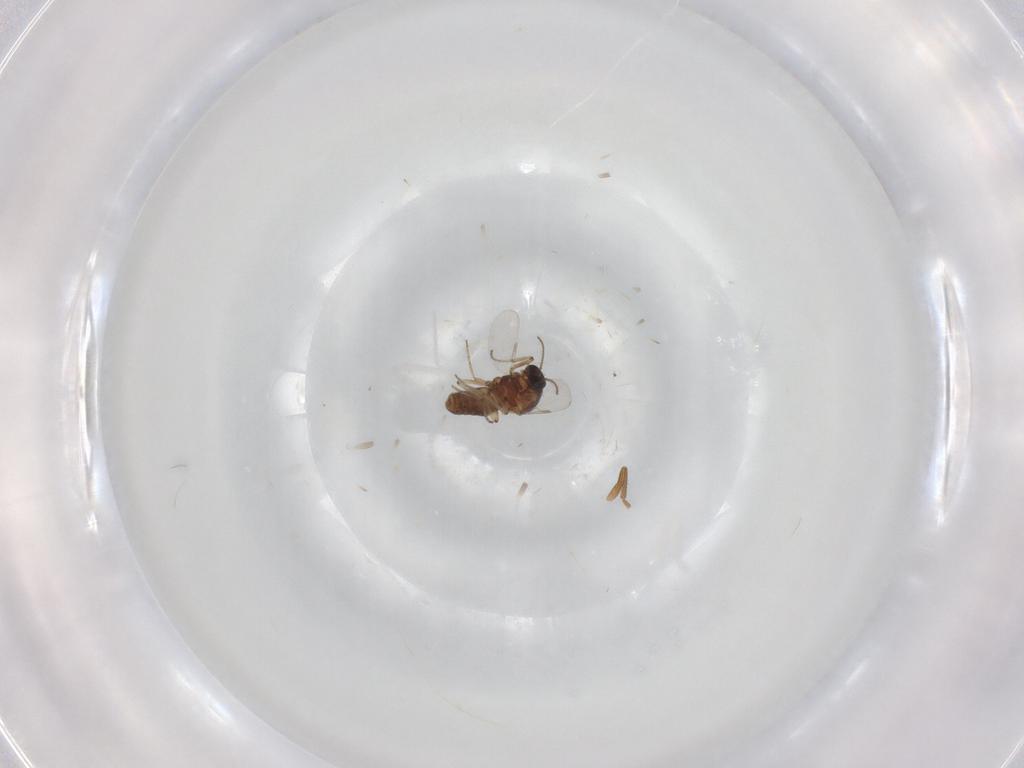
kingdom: Animalia
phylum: Arthropoda
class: Insecta
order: Diptera
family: Ceratopogonidae
